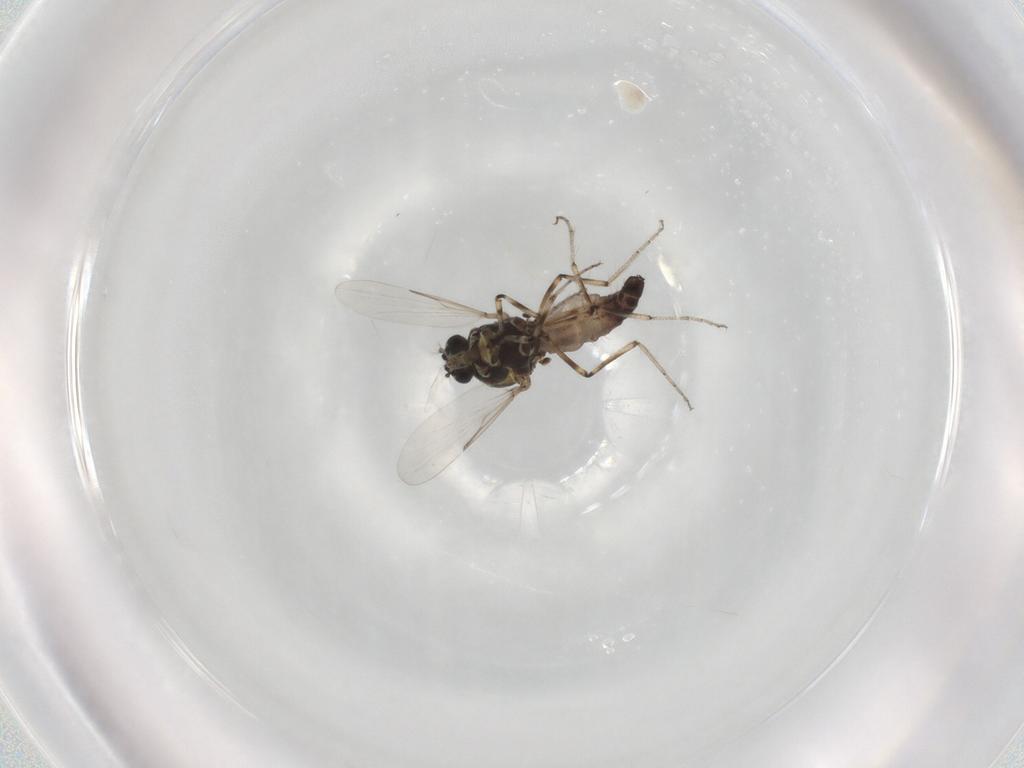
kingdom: Animalia
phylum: Arthropoda
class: Insecta
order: Diptera
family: Ceratopogonidae
